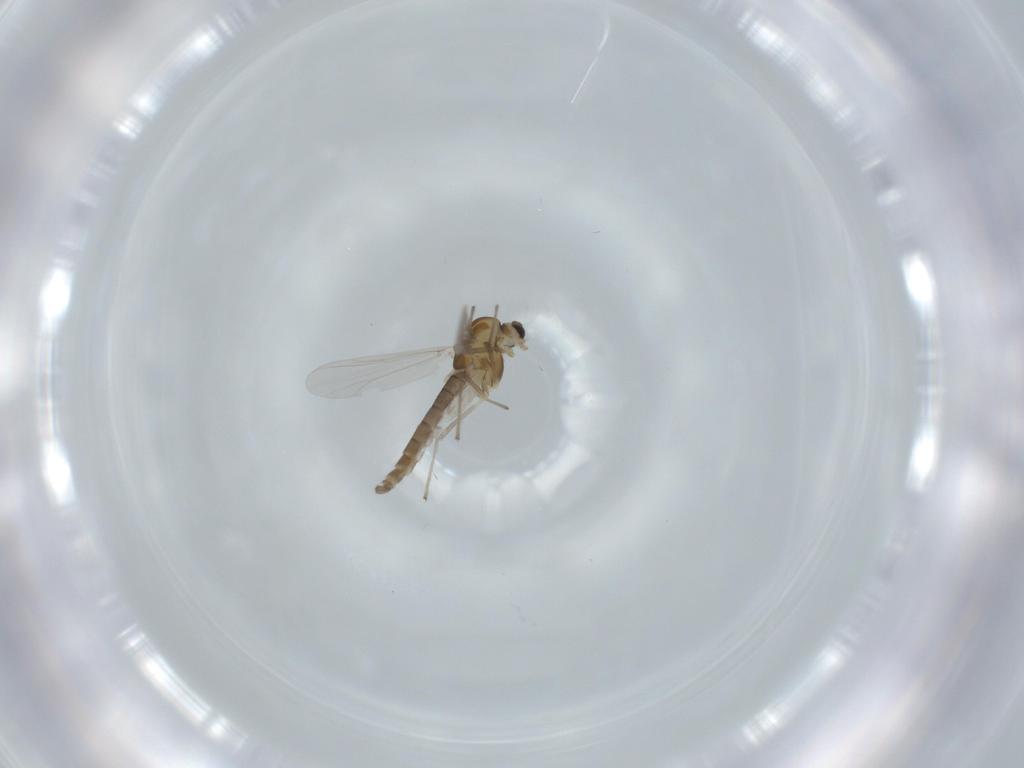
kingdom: Animalia
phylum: Arthropoda
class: Insecta
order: Diptera
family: Chironomidae
